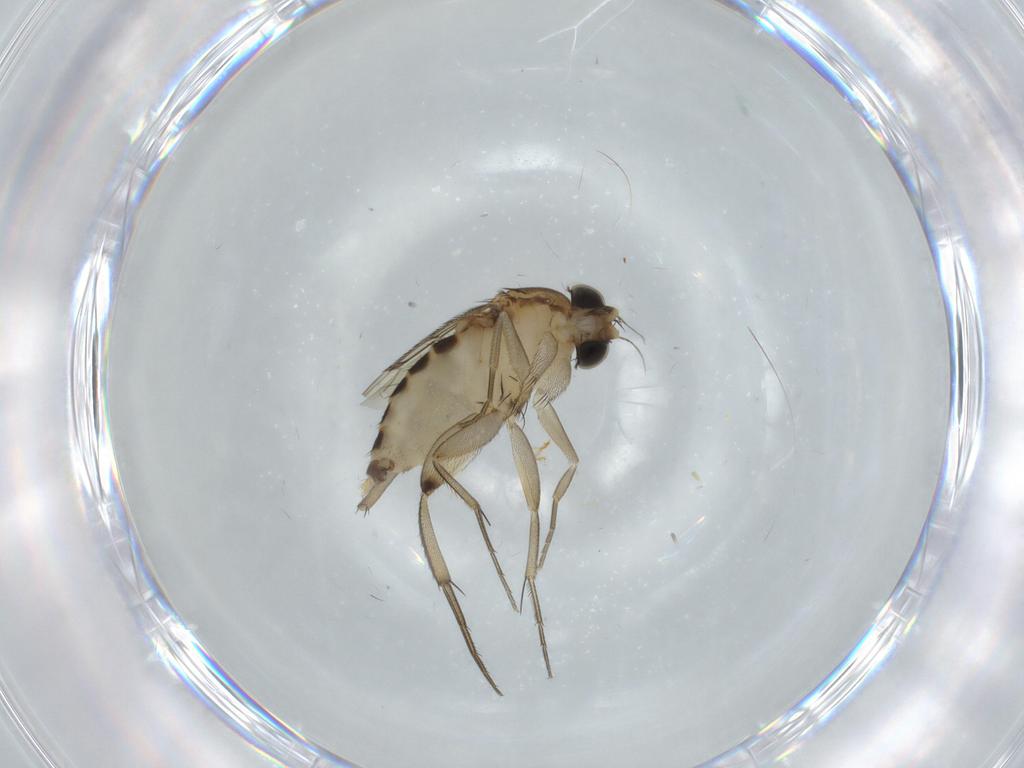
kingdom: Animalia
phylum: Arthropoda
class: Insecta
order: Diptera
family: Phoridae
